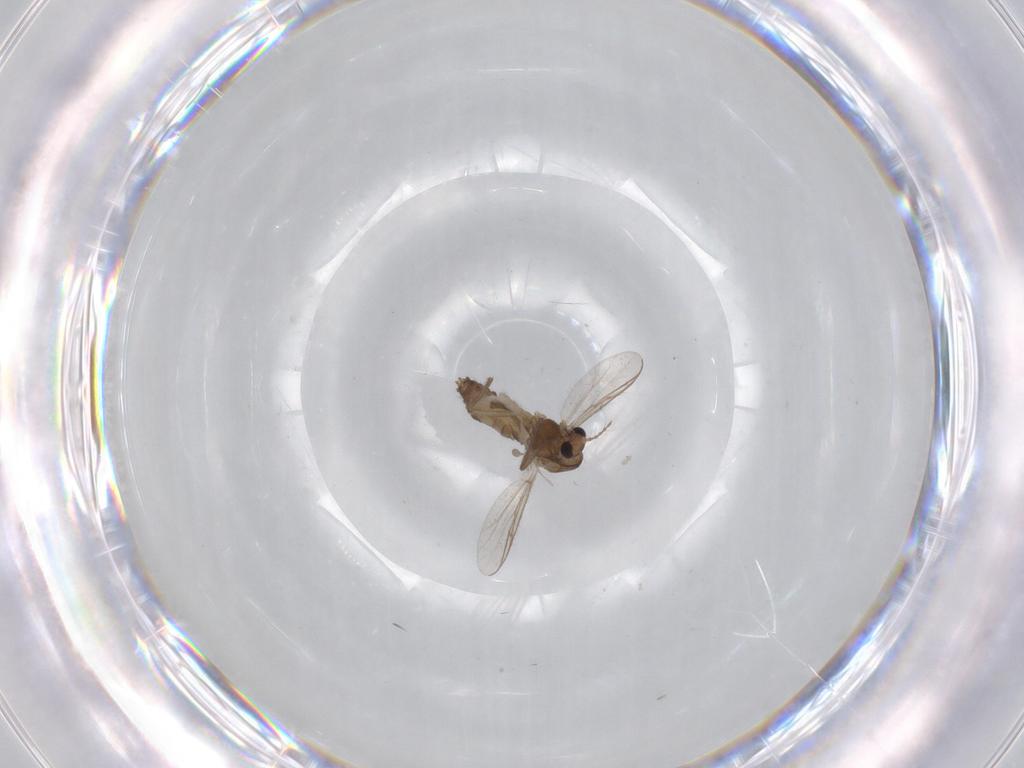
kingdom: Animalia
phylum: Arthropoda
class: Insecta
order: Diptera
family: Chironomidae
